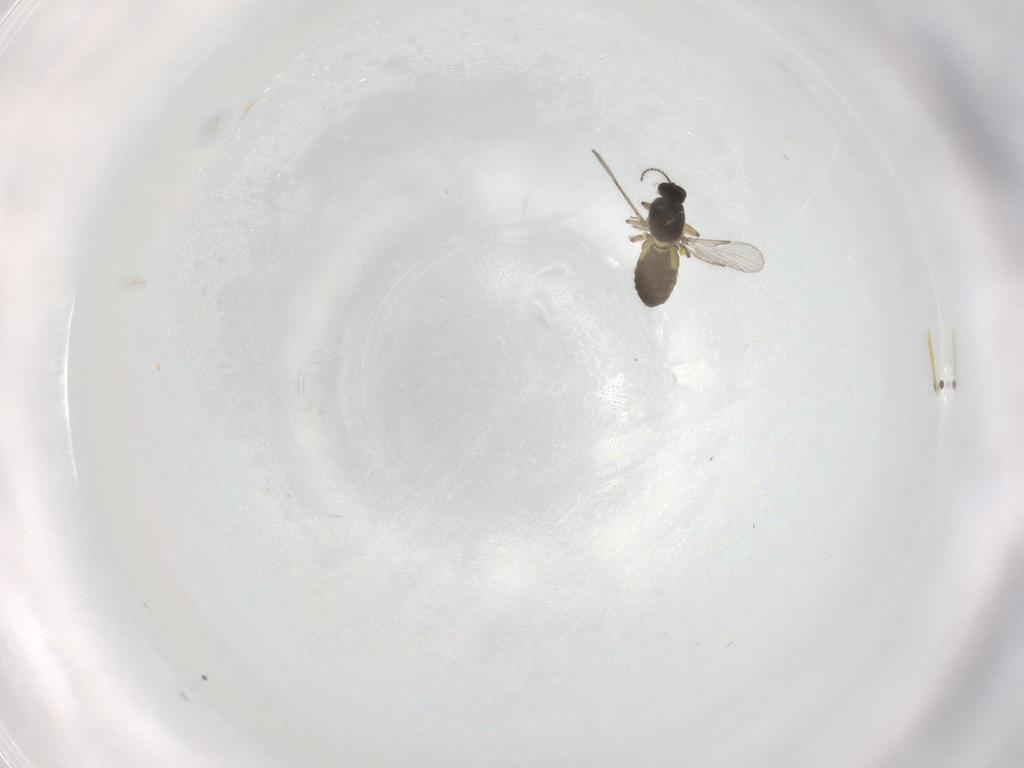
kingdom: Animalia
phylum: Arthropoda
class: Insecta
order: Diptera
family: Ceratopogonidae
